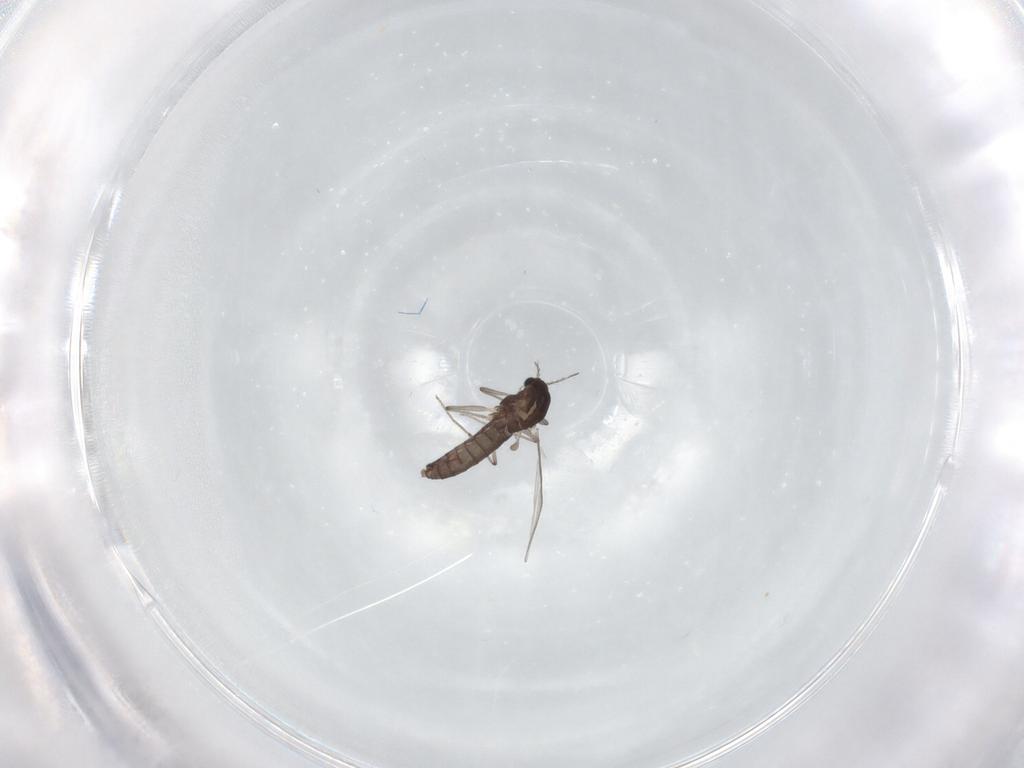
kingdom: Animalia
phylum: Arthropoda
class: Insecta
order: Diptera
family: Chironomidae
